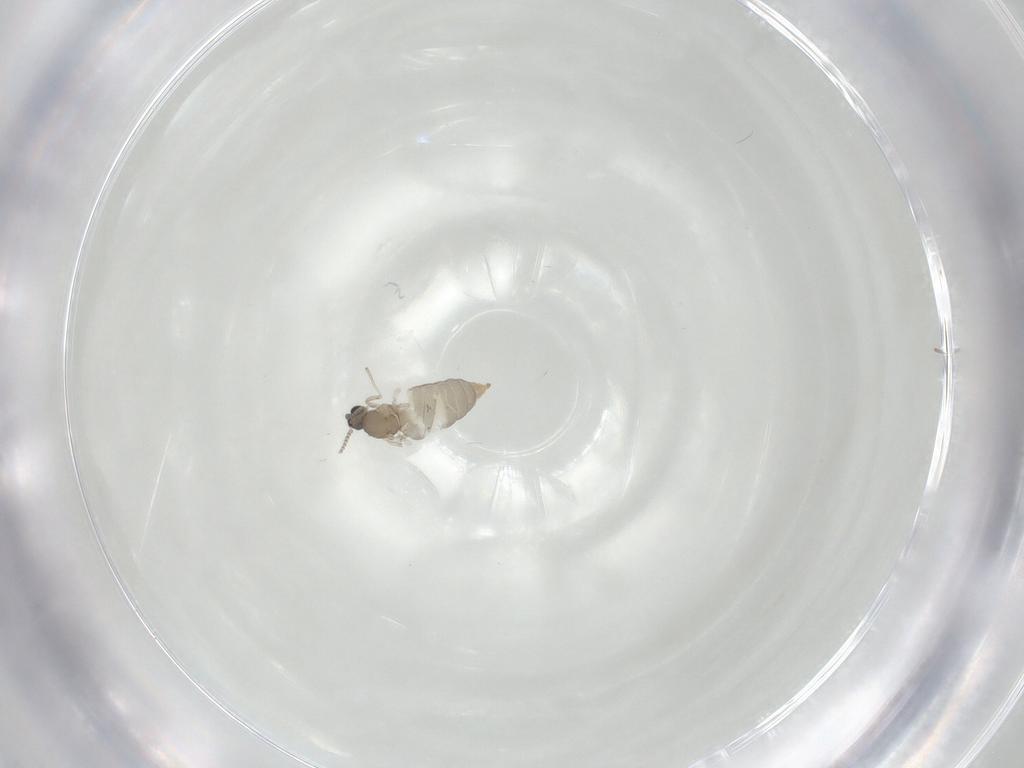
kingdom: Animalia
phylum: Arthropoda
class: Insecta
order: Diptera
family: Cecidomyiidae
